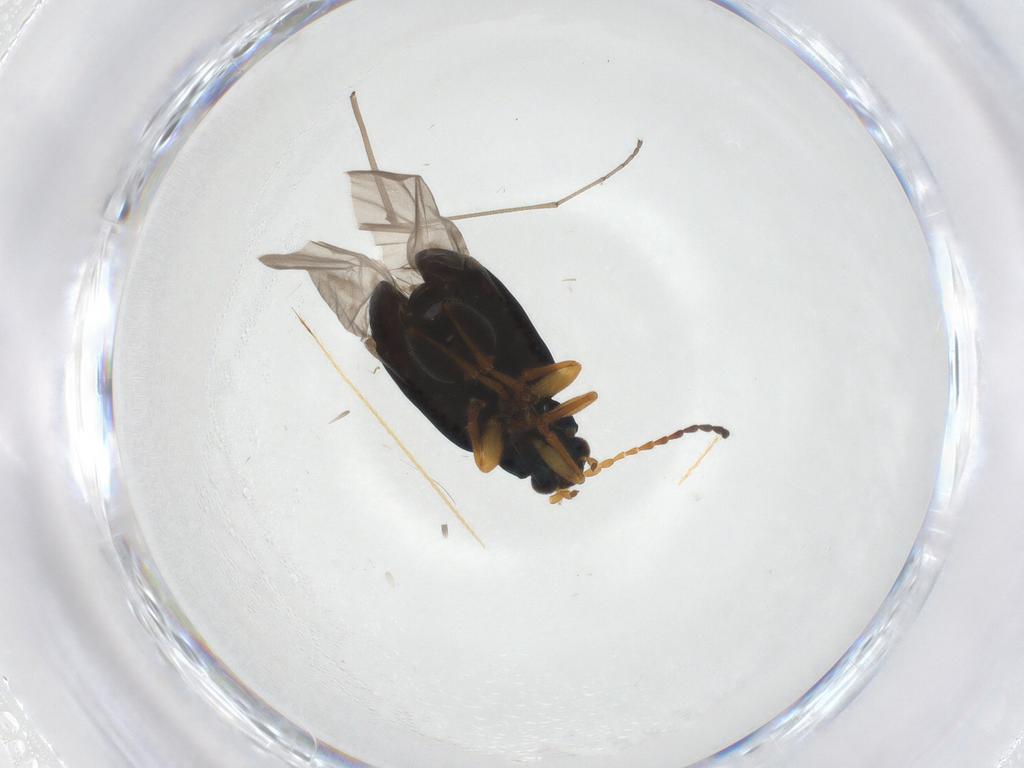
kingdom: Animalia
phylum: Arthropoda
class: Insecta
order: Coleoptera
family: Chrysomelidae
